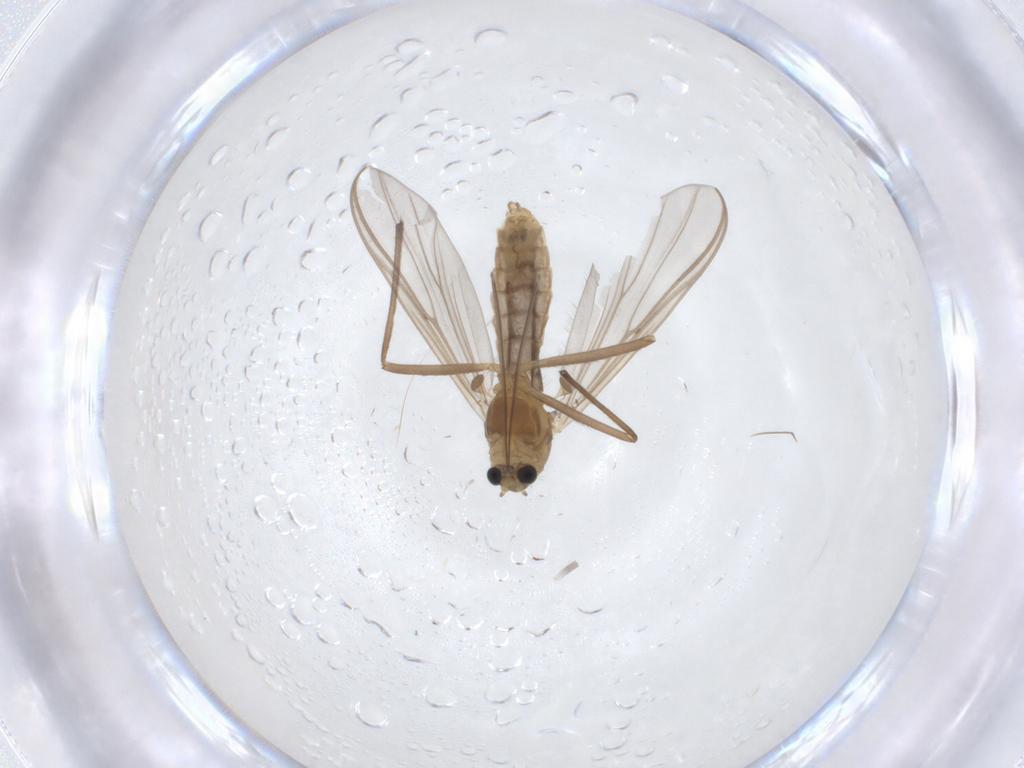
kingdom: Animalia
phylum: Arthropoda
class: Insecta
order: Diptera
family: Chironomidae
